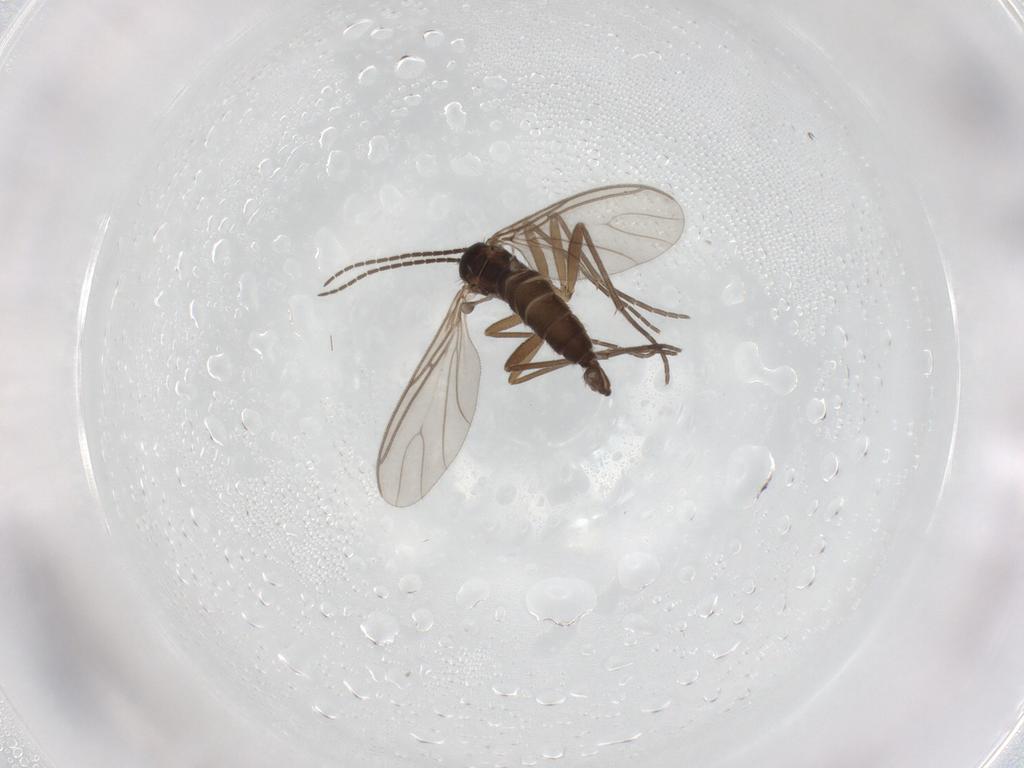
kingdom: Animalia
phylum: Arthropoda
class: Insecta
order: Diptera
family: Sciaridae
